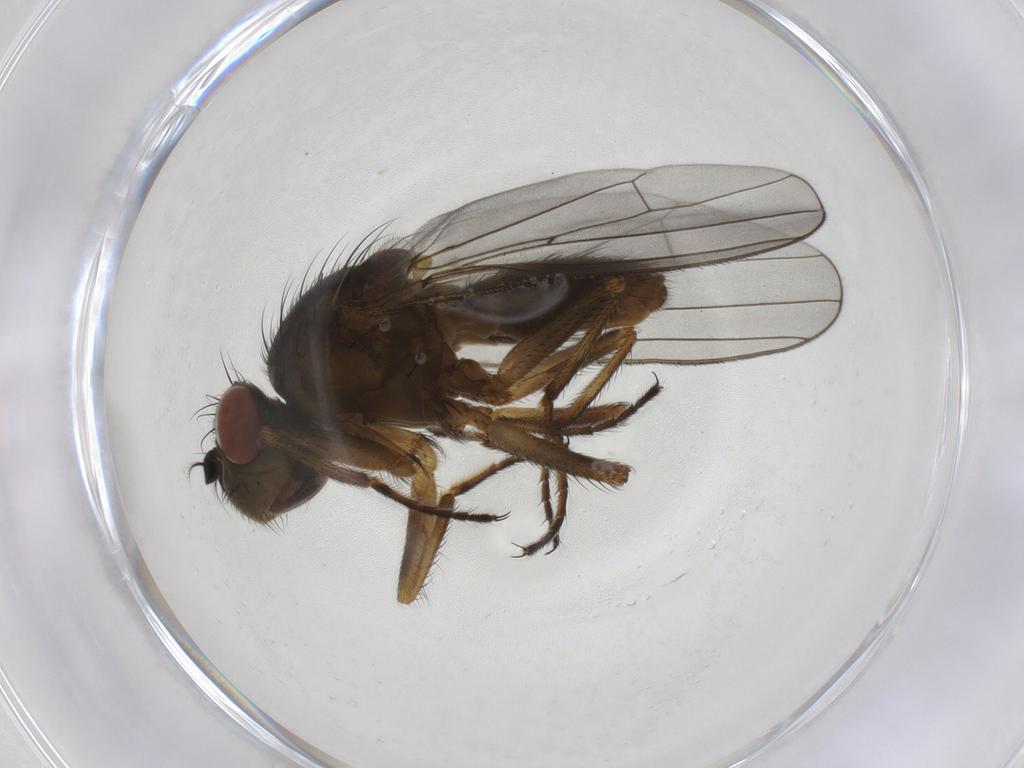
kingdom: Animalia
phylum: Arthropoda
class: Insecta
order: Diptera
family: Ephydridae
